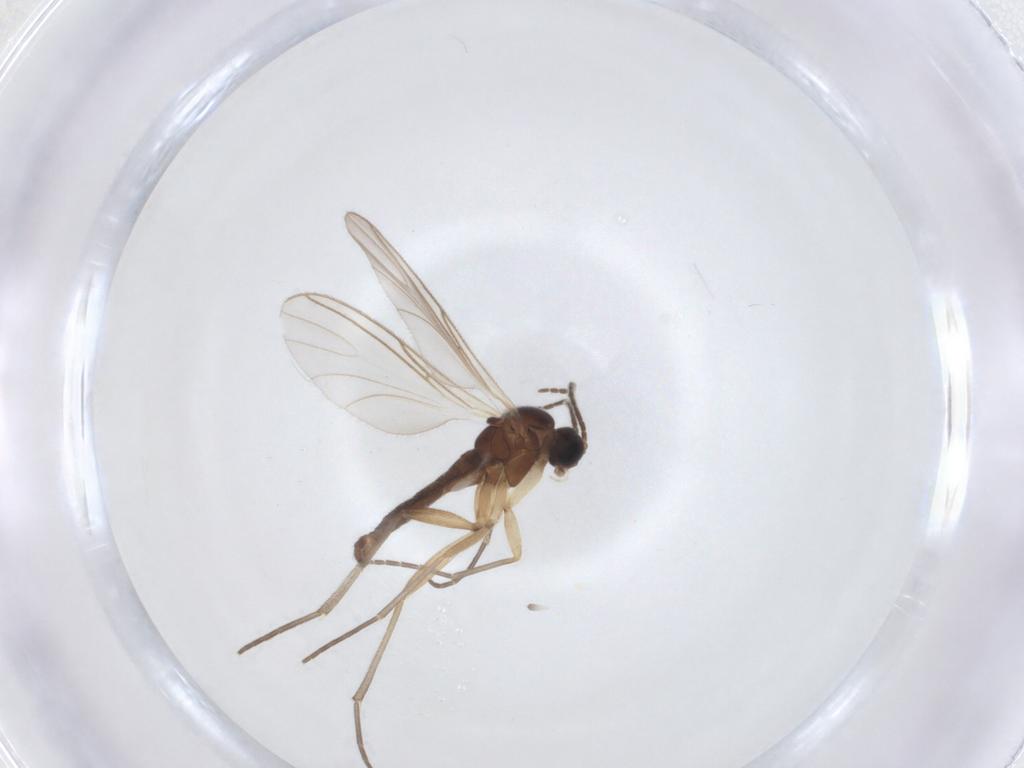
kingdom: Animalia
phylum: Arthropoda
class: Insecta
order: Diptera
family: Sciaridae
